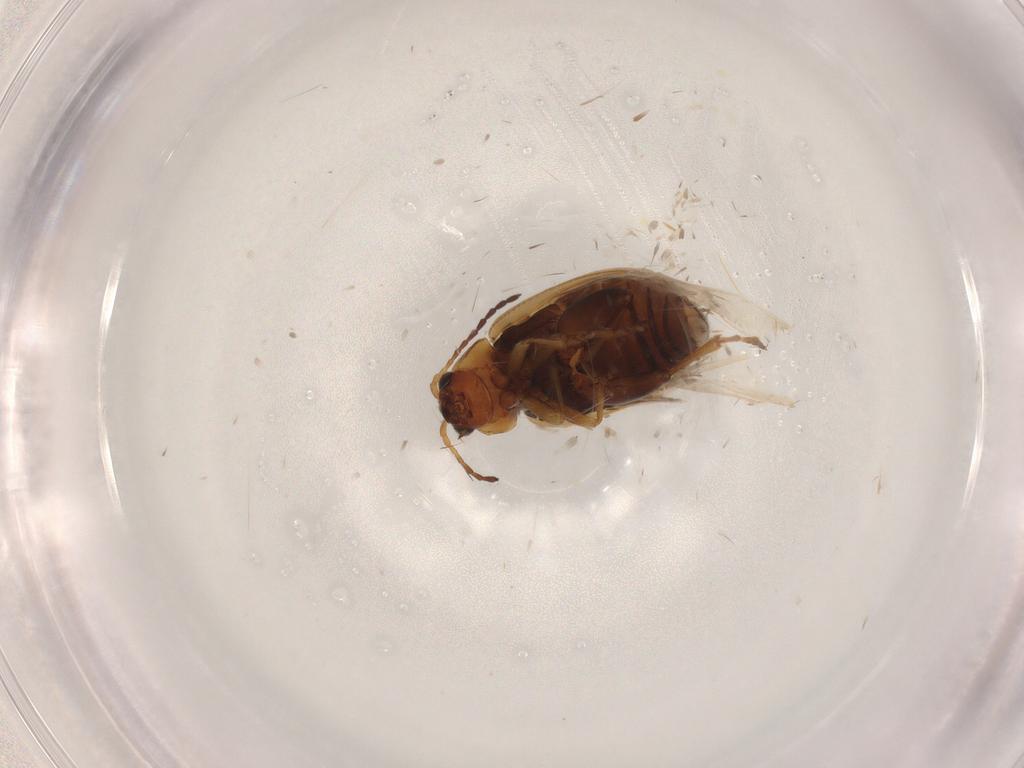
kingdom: Animalia
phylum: Arthropoda
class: Insecta
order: Coleoptera
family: Chrysomelidae
